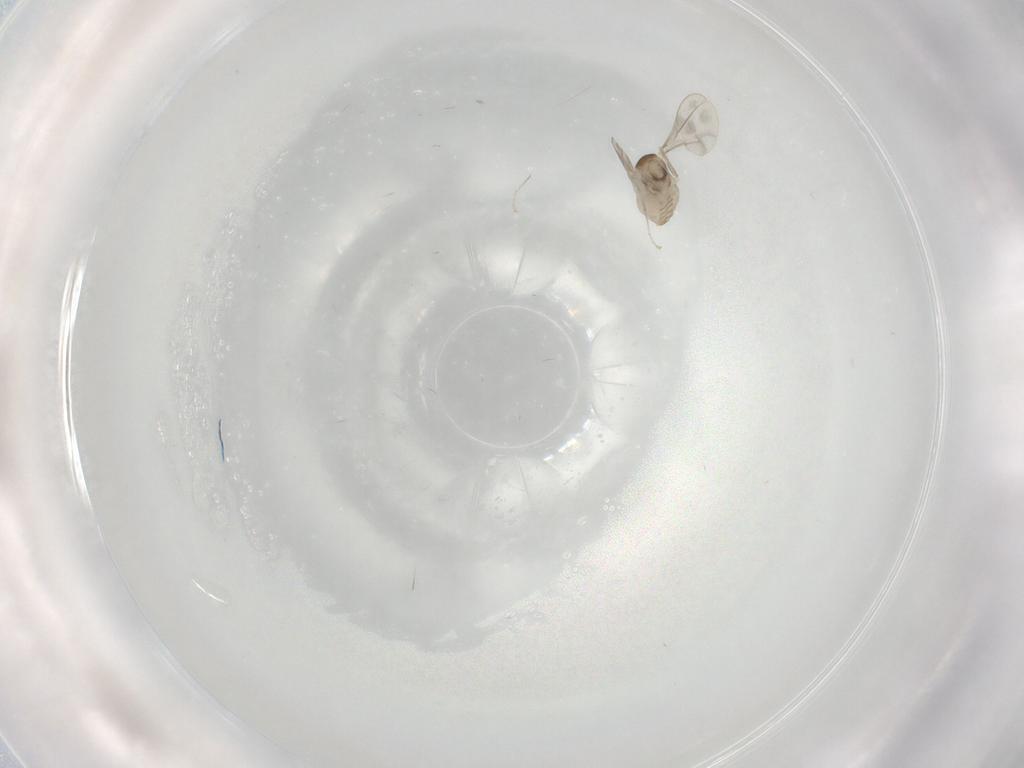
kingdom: Animalia
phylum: Arthropoda
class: Insecta
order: Diptera
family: Cecidomyiidae
